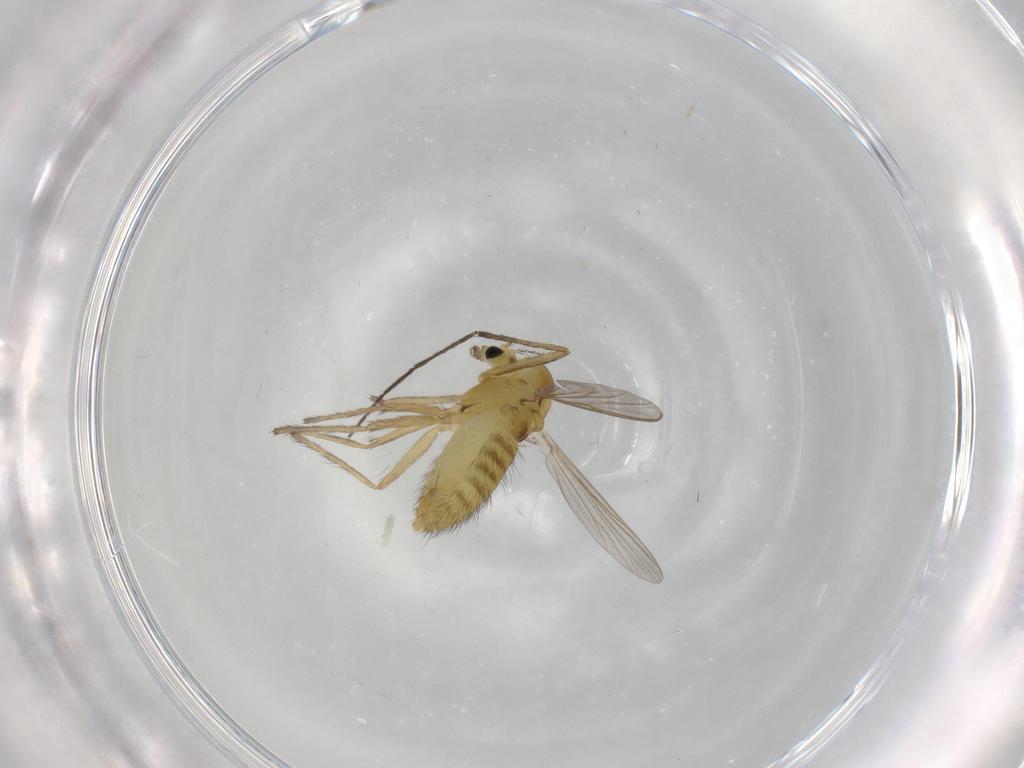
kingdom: Animalia
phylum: Arthropoda
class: Insecta
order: Diptera
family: Chironomidae
